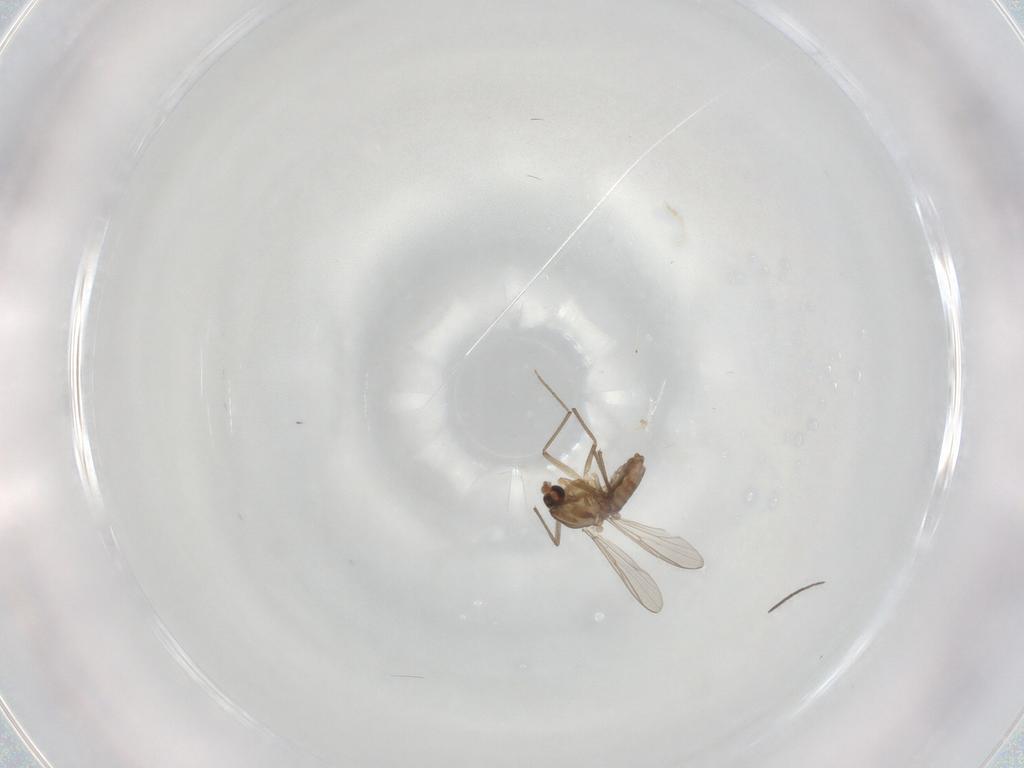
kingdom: Animalia
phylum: Arthropoda
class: Insecta
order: Diptera
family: Chironomidae
